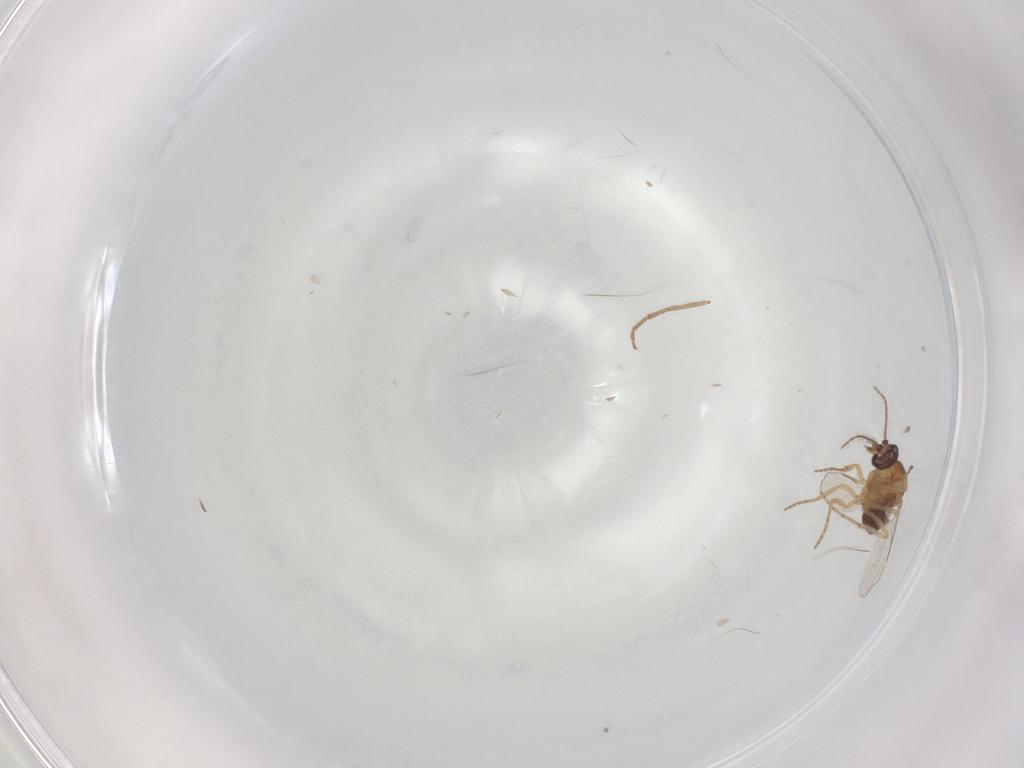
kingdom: Animalia
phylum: Arthropoda
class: Insecta
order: Diptera
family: Ceratopogonidae
